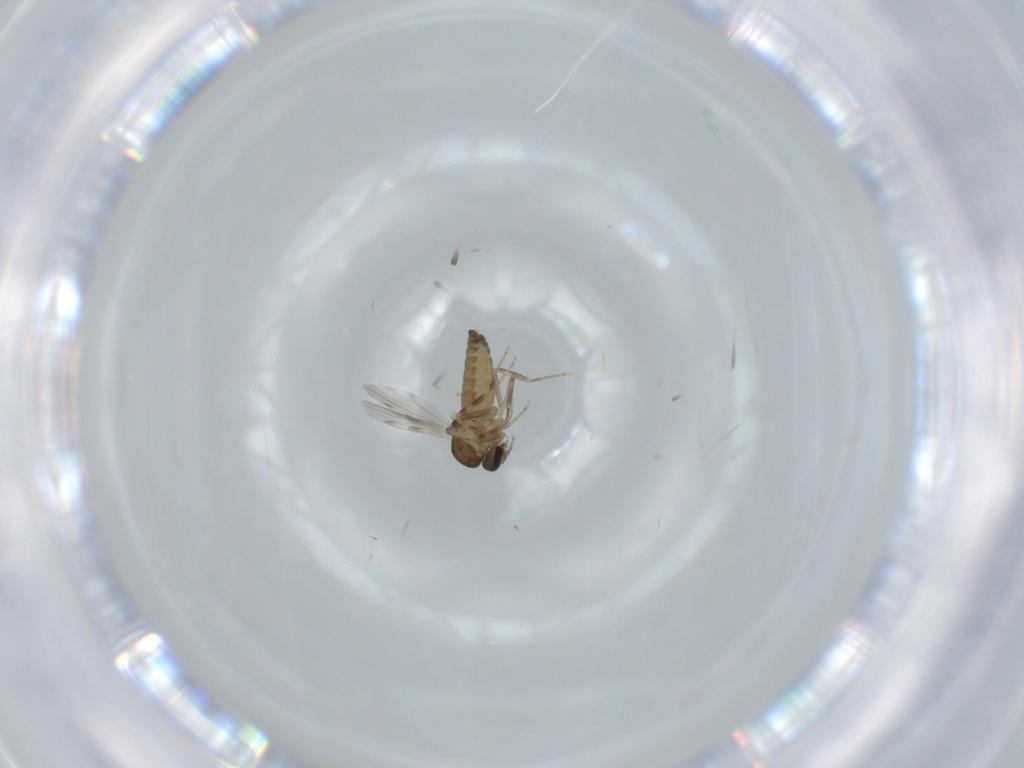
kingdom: Animalia
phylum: Arthropoda
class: Insecta
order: Diptera
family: Ceratopogonidae
